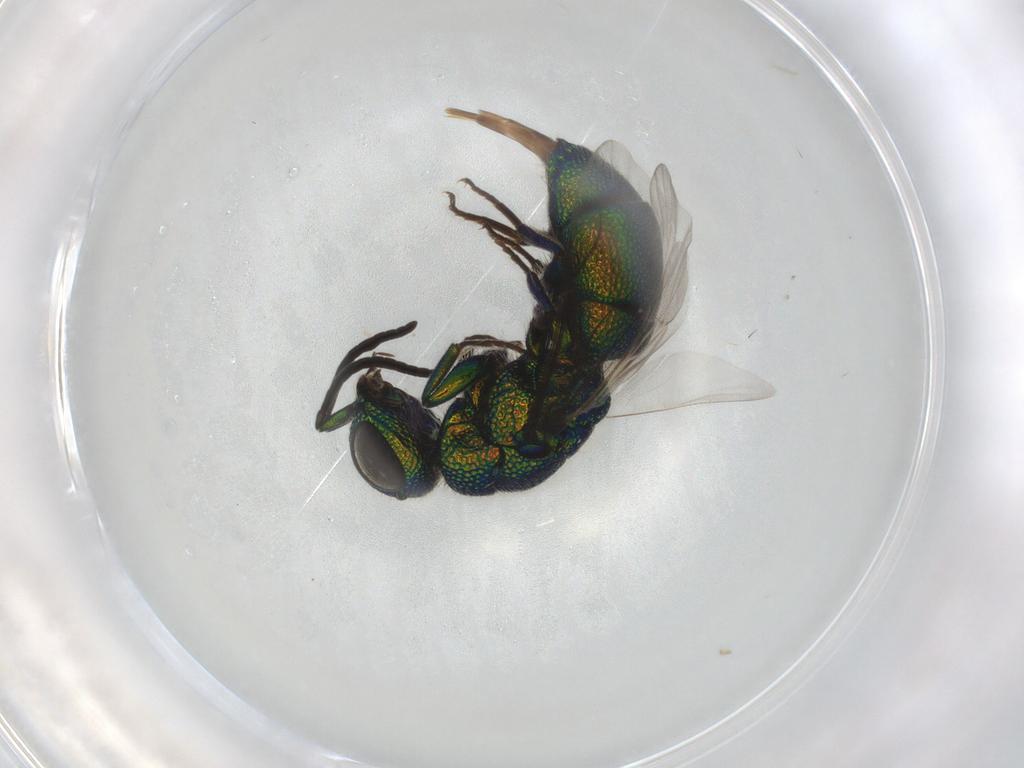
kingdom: Animalia
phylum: Arthropoda
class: Insecta
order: Hymenoptera
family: Chrysididae
